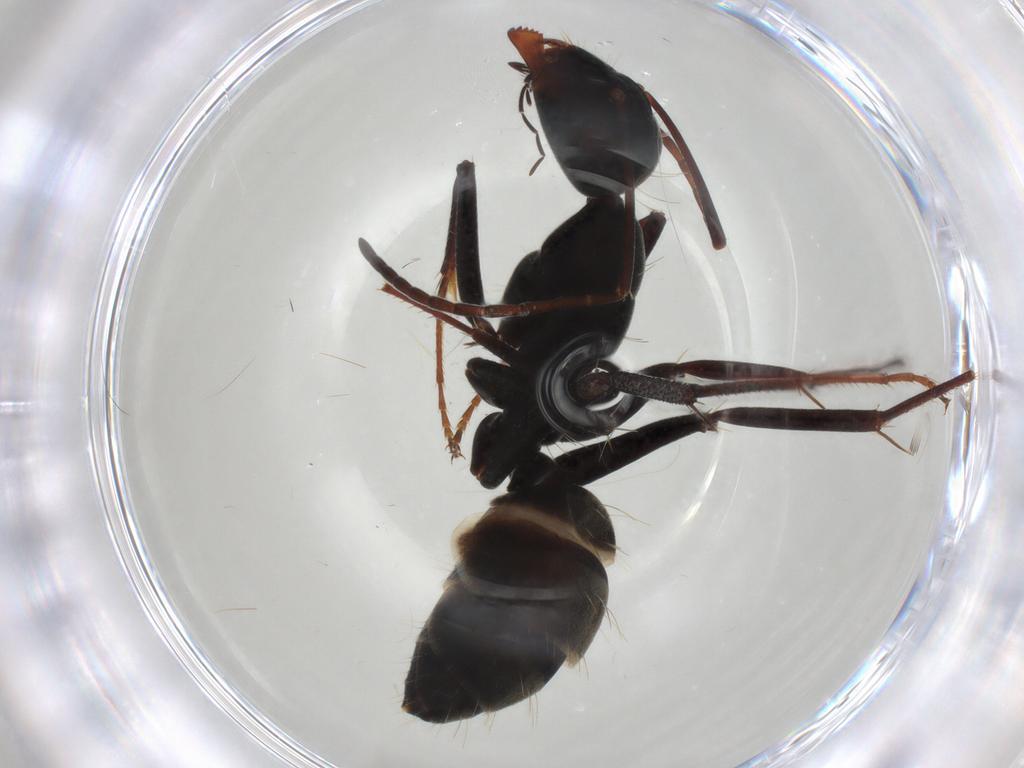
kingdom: Animalia
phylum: Arthropoda
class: Insecta
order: Hymenoptera
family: Formicidae
